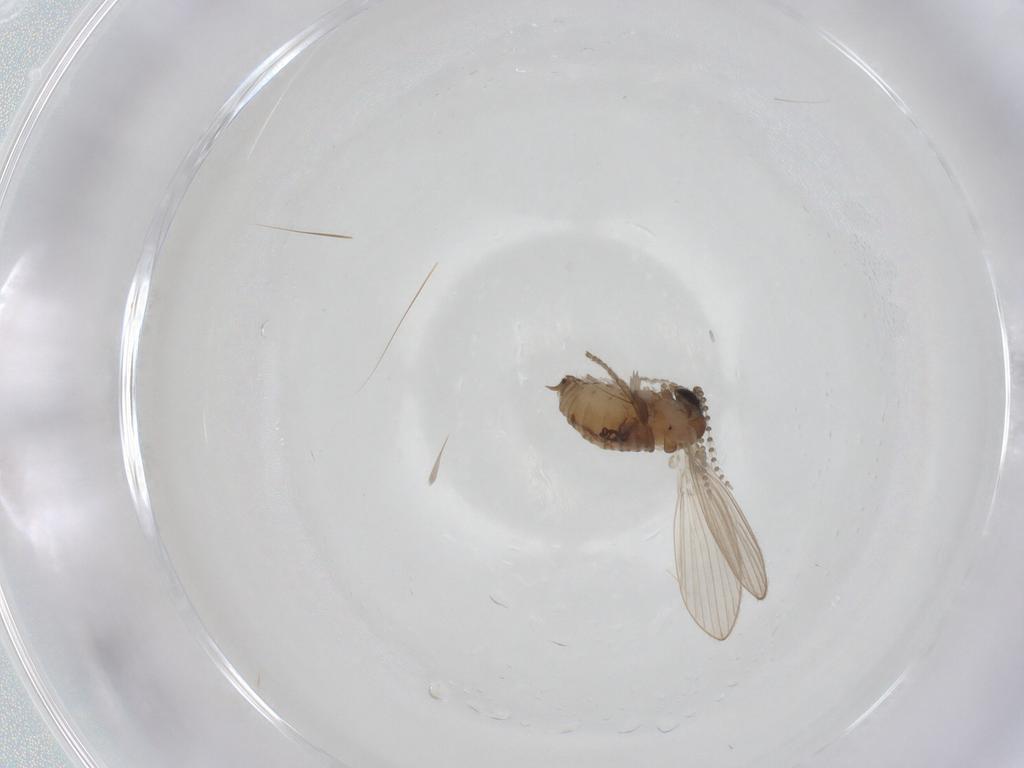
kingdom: Animalia
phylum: Arthropoda
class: Insecta
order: Diptera
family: Psychodidae
